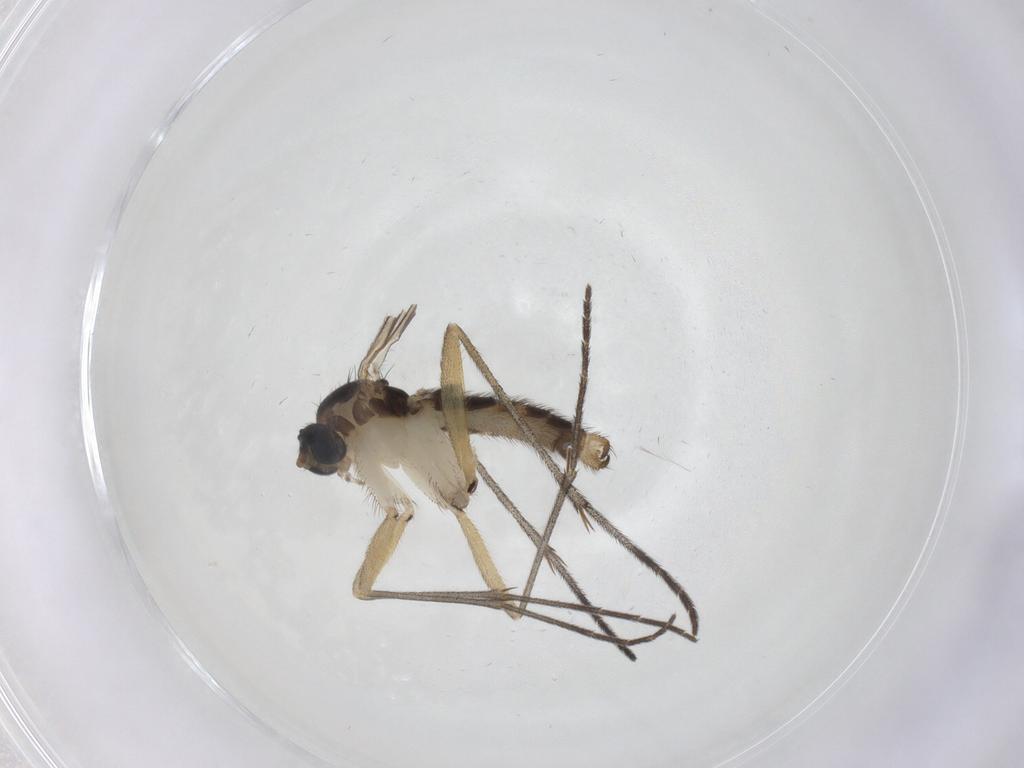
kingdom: Animalia
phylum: Arthropoda
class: Insecta
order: Diptera
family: Sciaridae
